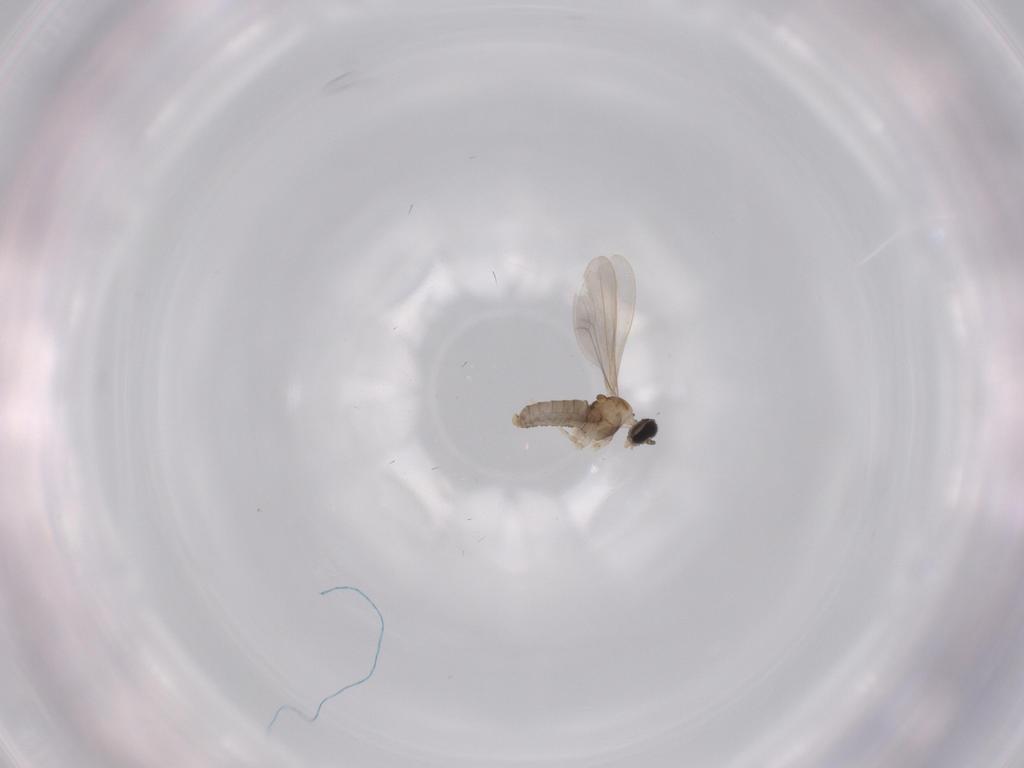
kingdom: Animalia
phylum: Arthropoda
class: Insecta
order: Diptera
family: Cecidomyiidae
